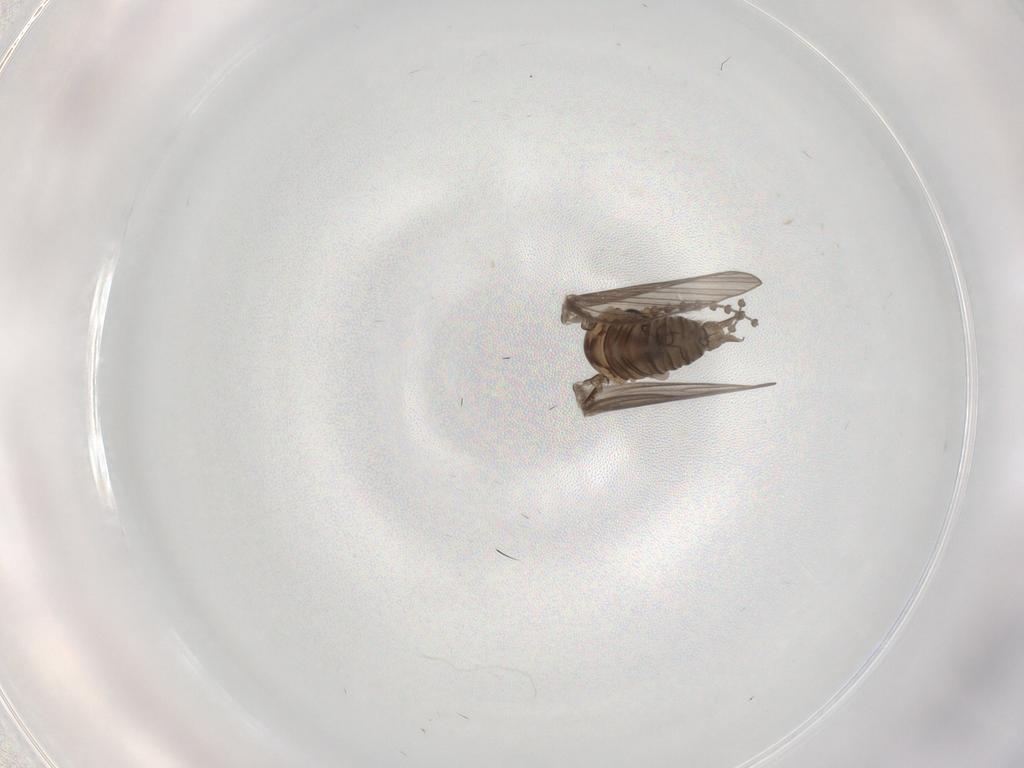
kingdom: Animalia
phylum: Arthropoda
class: Insecta
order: Diptera
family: Psychodidae
